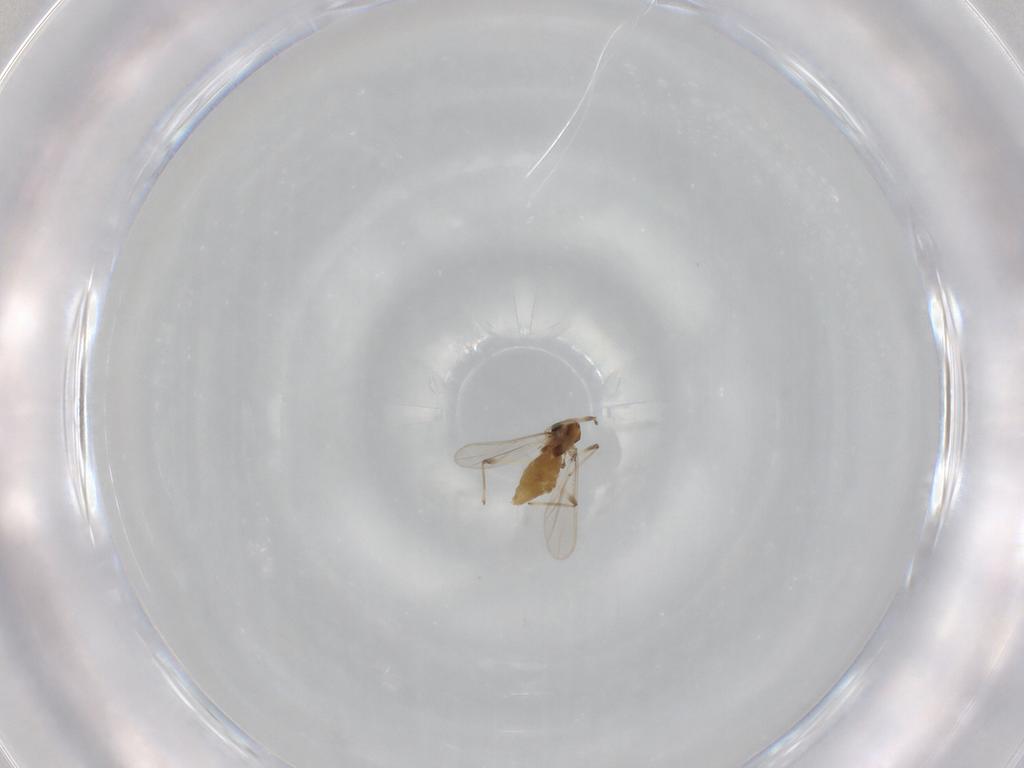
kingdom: Animalia
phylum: Arthropoda
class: Insecta
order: Diptera
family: Chironomidae
